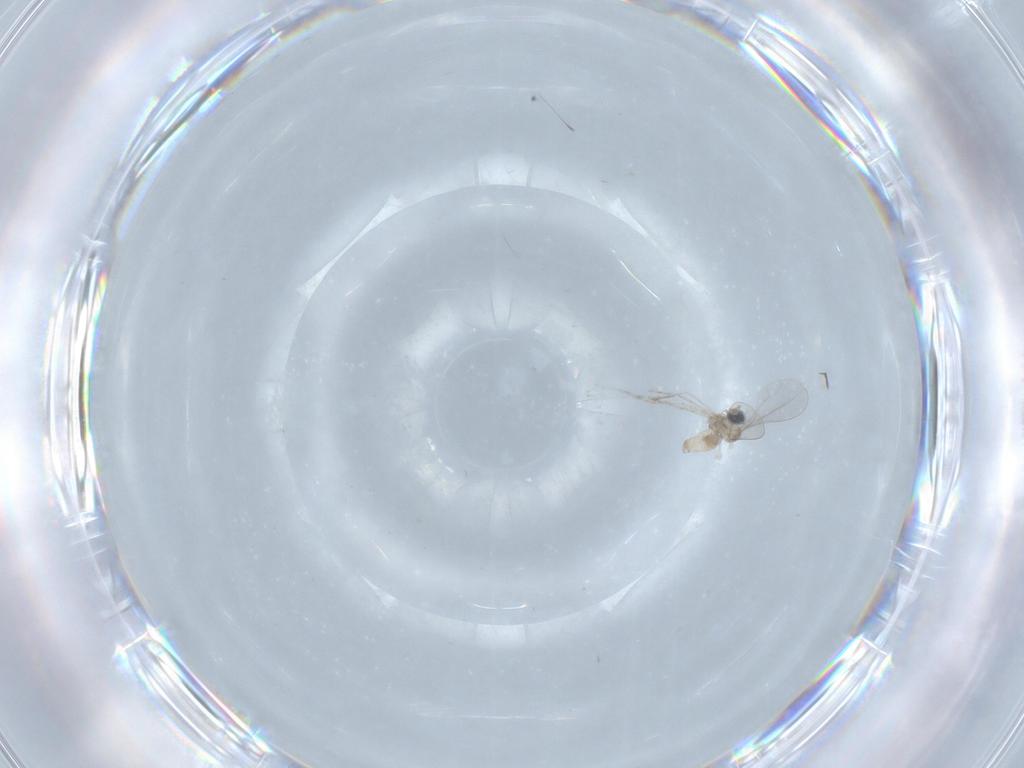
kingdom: Animalia
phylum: Arthropoda
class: Insecta
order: Diptera
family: Cecidomyiidae
